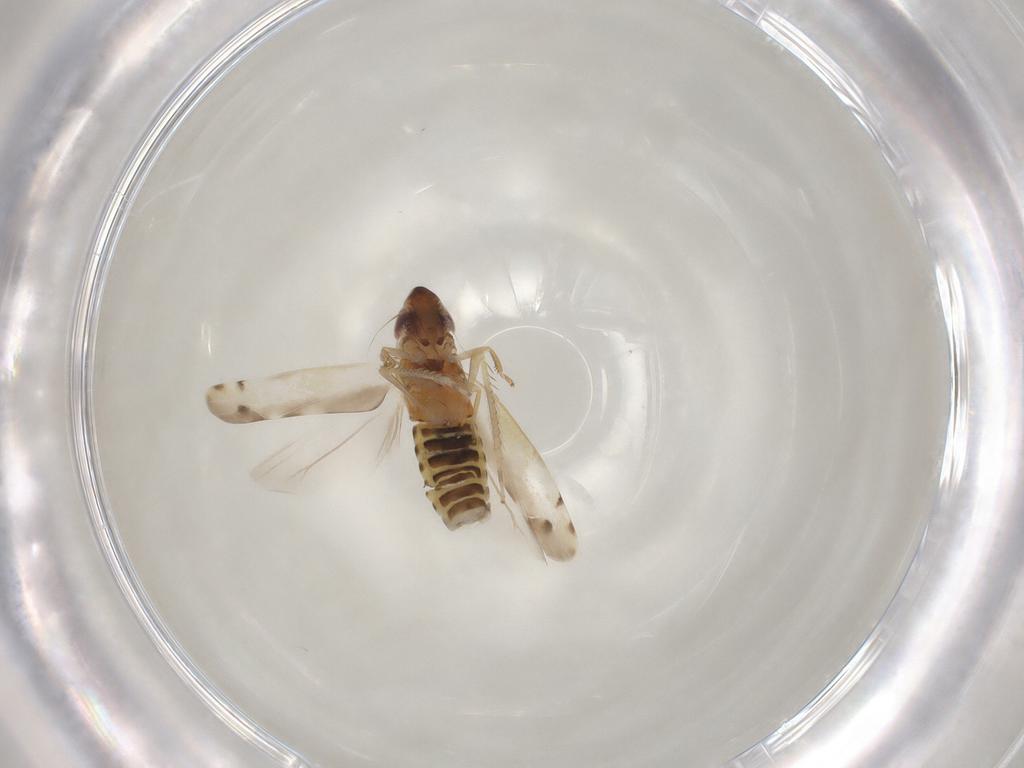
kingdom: Animalia
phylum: Arthropoda
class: Insecta
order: Hemiptera
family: Cicadellidae
